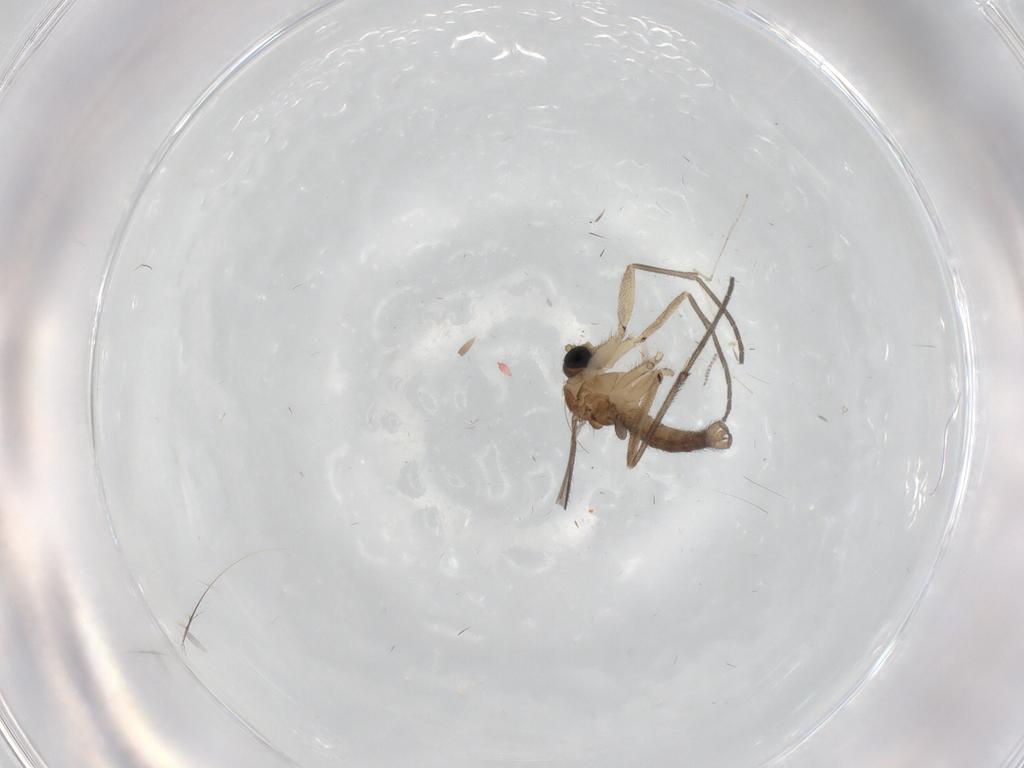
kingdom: Animalia
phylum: Arthropoda
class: Insecta
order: Diptera
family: Sciaridae
